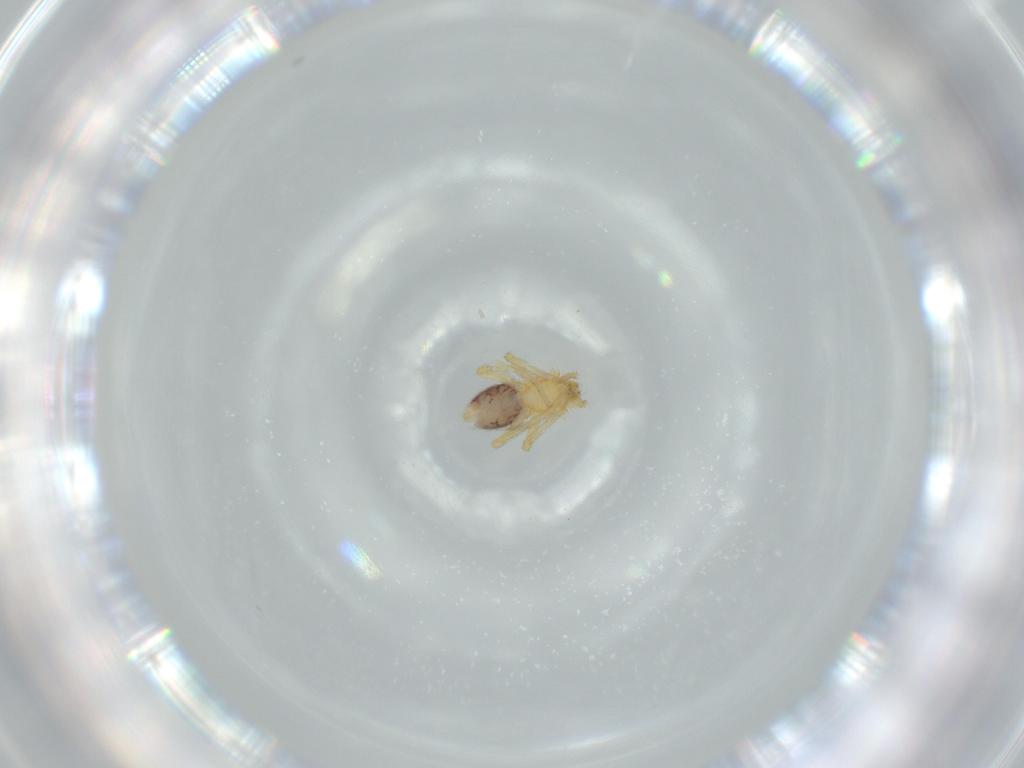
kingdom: Animalia
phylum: Arthropoda
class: Arachnida
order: Araneae
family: Oonopidae
